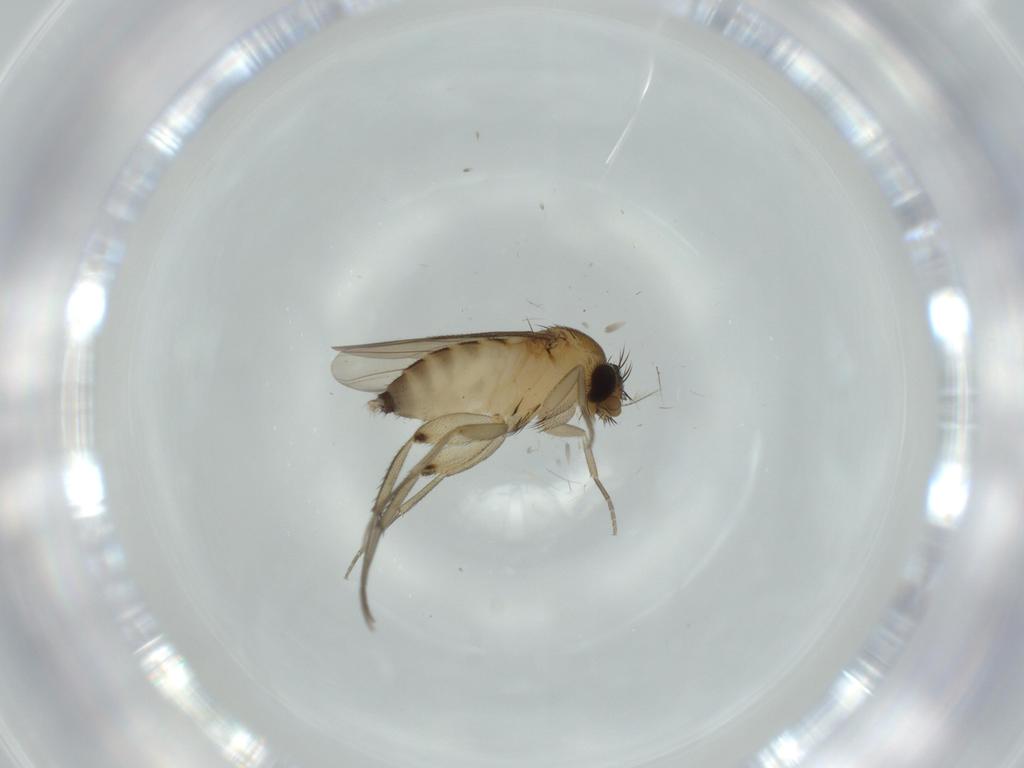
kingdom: Animalia
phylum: Arthropoda
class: Insecta
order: Diptera
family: Phoridae
